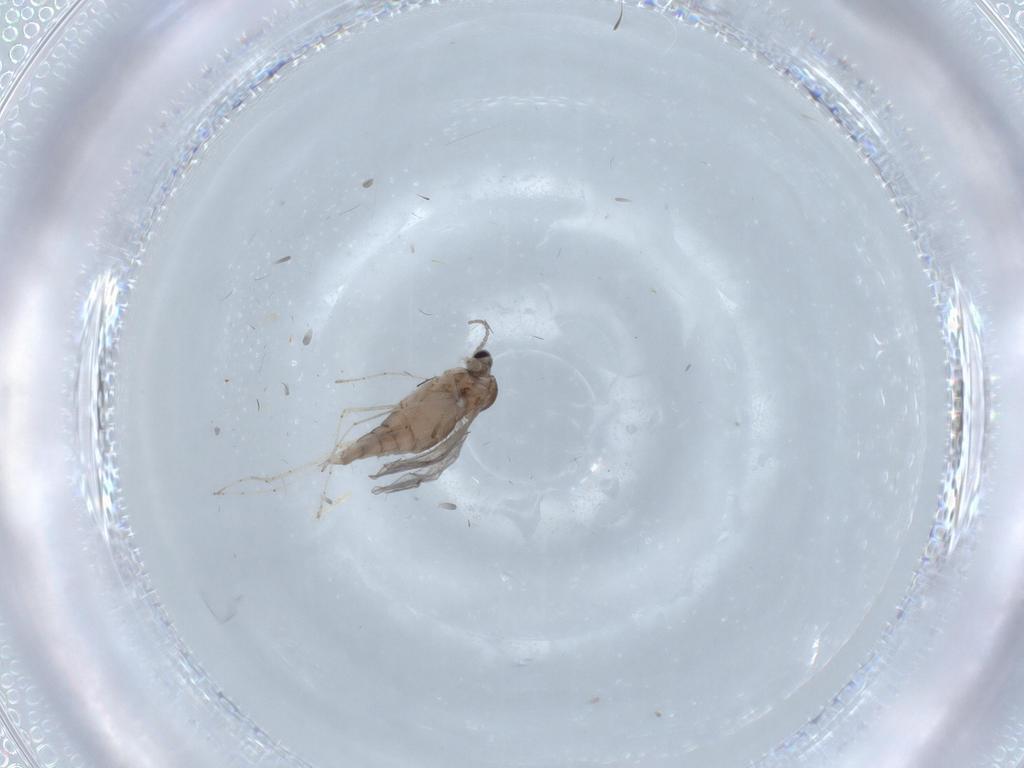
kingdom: Animalia
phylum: Arthropoda
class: Insecta
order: Diptera
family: Cecidomyiidae
